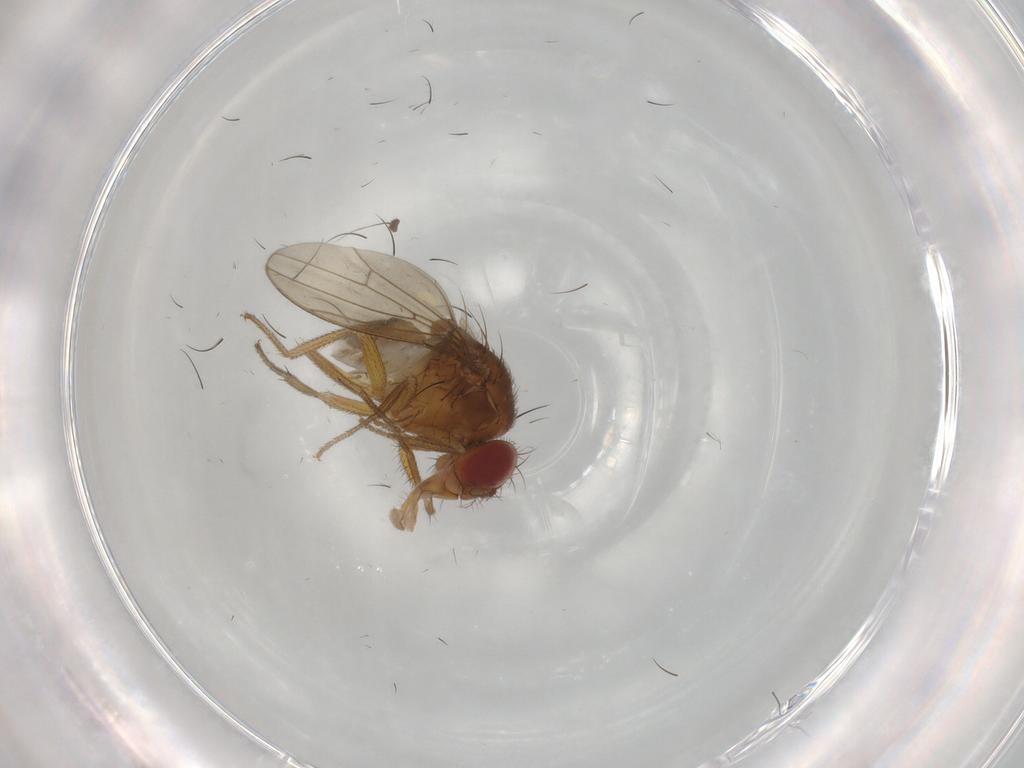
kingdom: Animalia
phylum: Arthropoda
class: Insecta
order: Diptera
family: Drosophilidae
